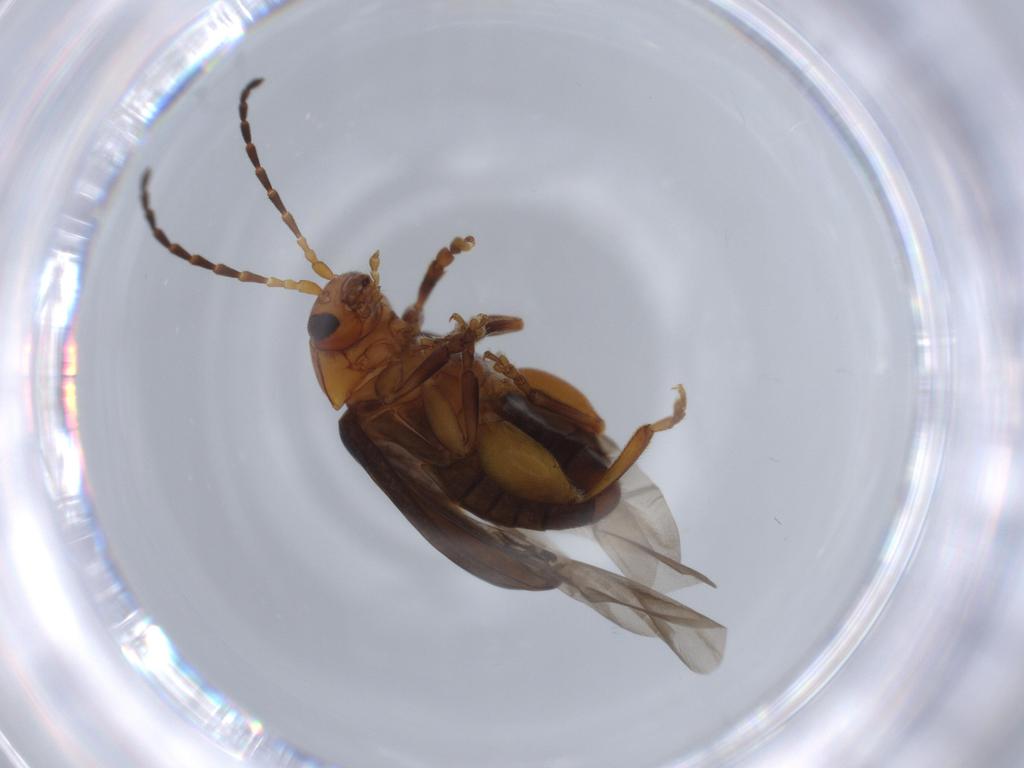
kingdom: Animalia
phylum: Arthropoda
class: Insecta
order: Coleoptera
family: Chrysomelidae
